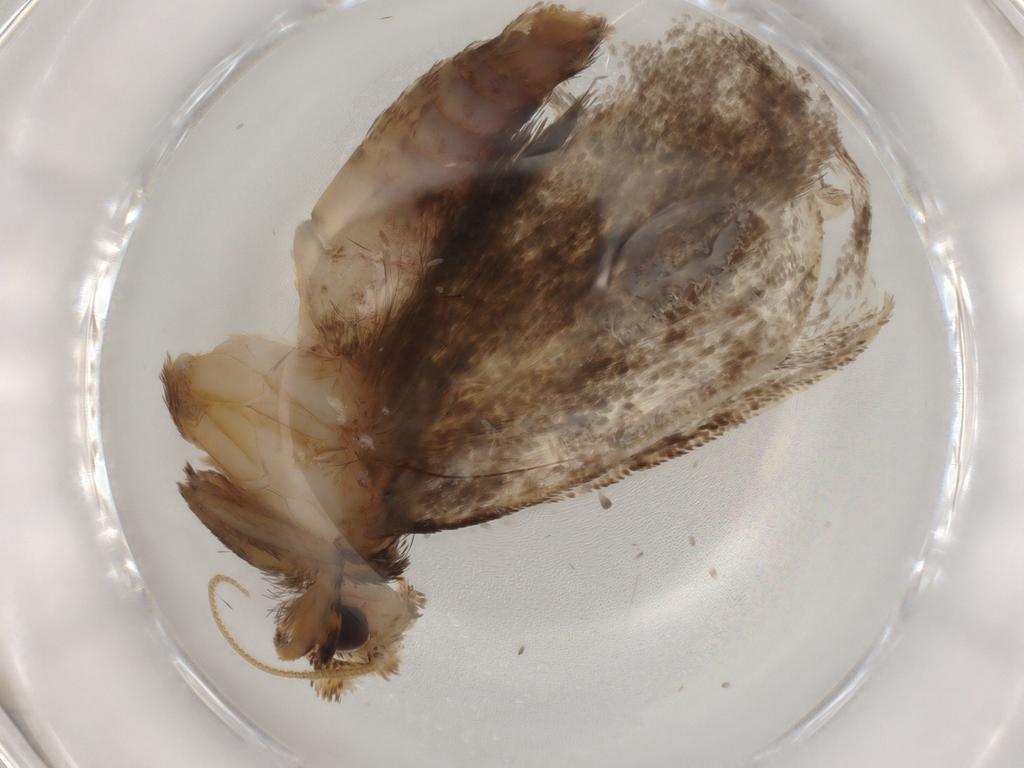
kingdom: Animalia
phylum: Arthropoda
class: Insecta
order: Lepidoptera
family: Tineidae
